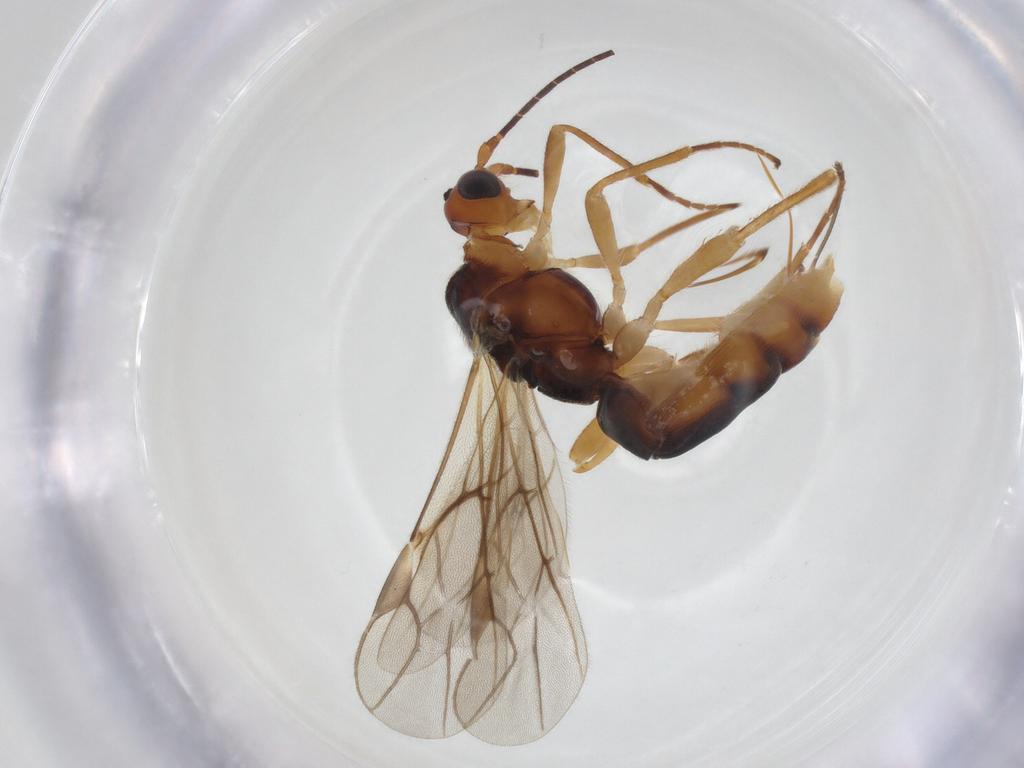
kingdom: Animalia
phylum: Arthropoda
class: Insecta
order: Hymenoptera
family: Braconidae
